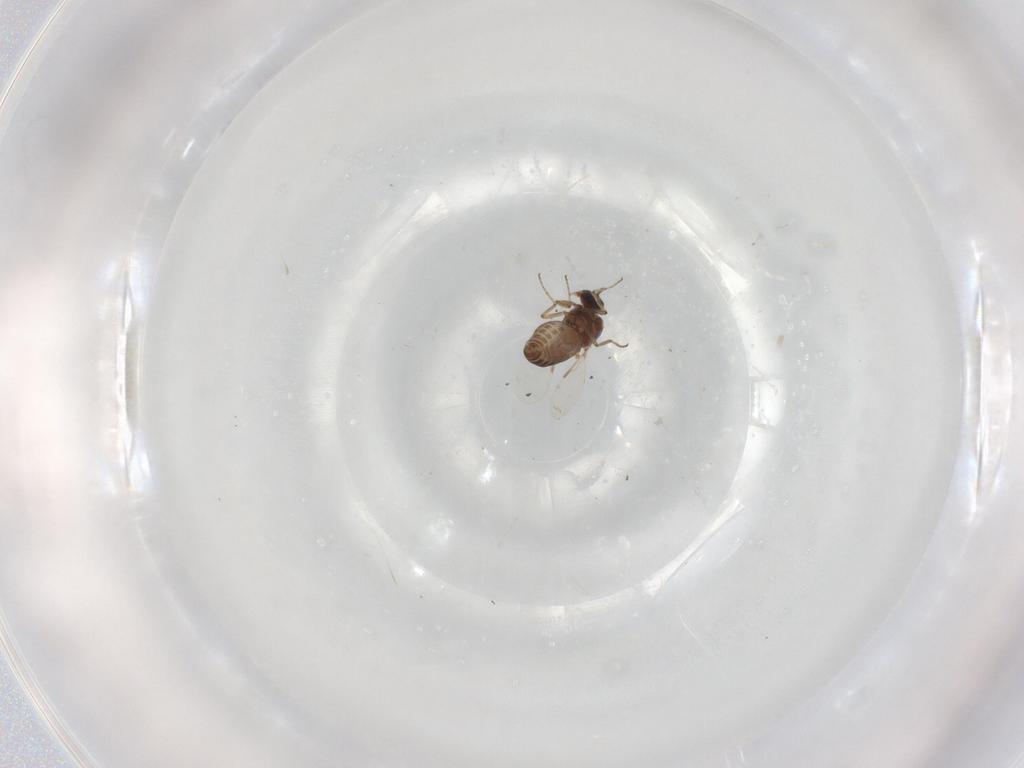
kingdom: Animalia
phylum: Arthropoda
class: Insecta
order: Diptera
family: Ceratopogonidae
